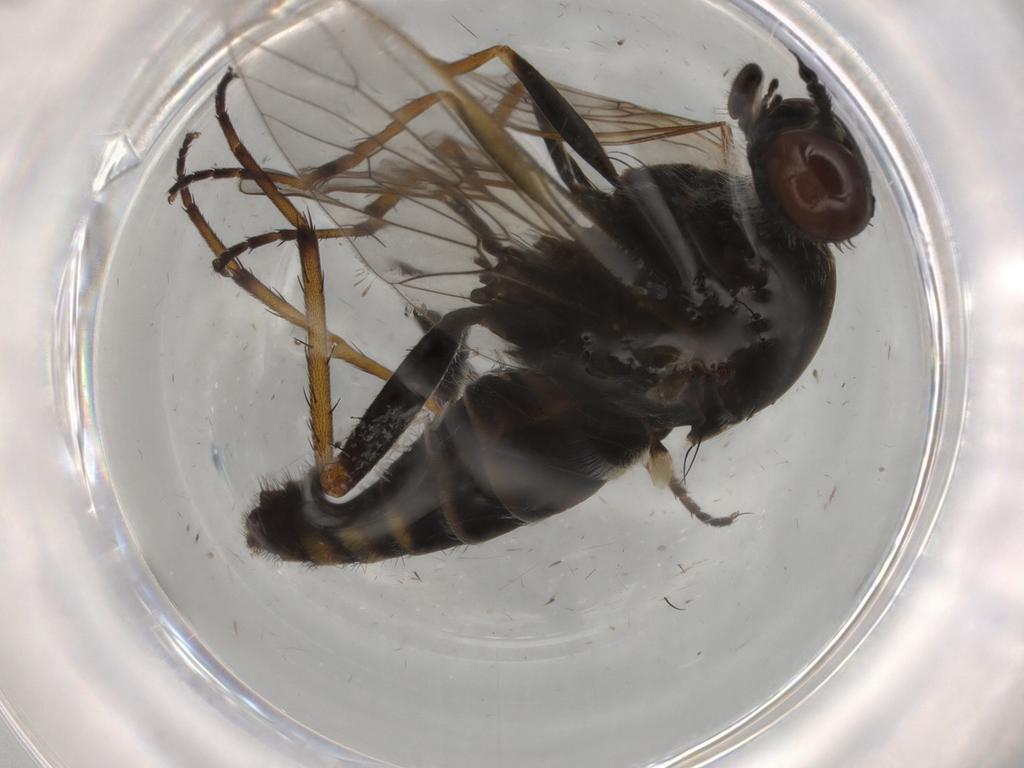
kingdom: Animalia
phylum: Arthropoda
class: Insecta
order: Diptera
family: Therevidae
